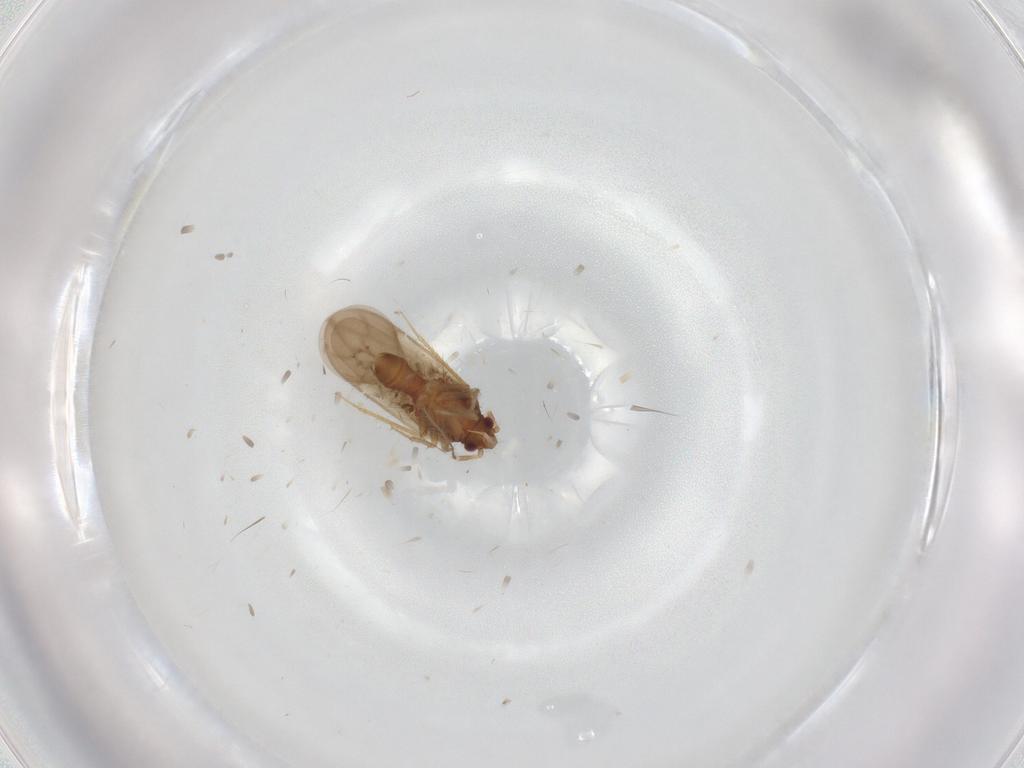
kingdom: Animalia
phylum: Arthropoda
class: Insecta
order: Hemiptera
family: Ceratocombidae
